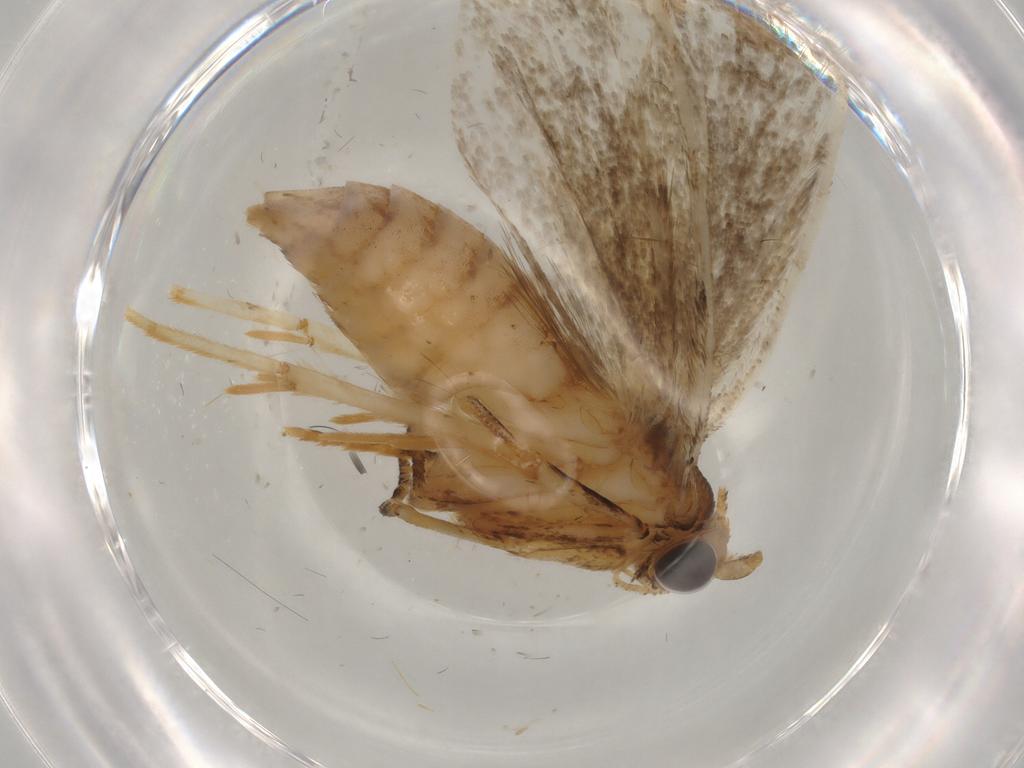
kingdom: Animalia
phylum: Arthropoda
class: Insecta
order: Lepidoptera
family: Tineidae
